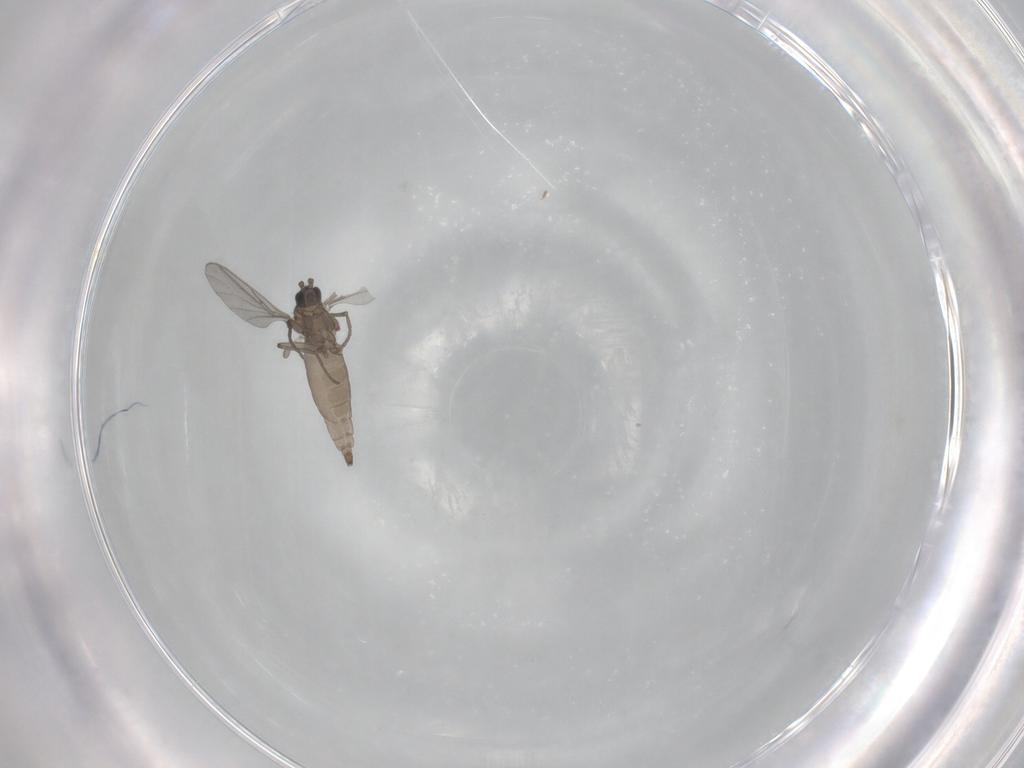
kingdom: Animalia
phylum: Arthropoda
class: Insecta
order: Diptera
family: Sciaridae
